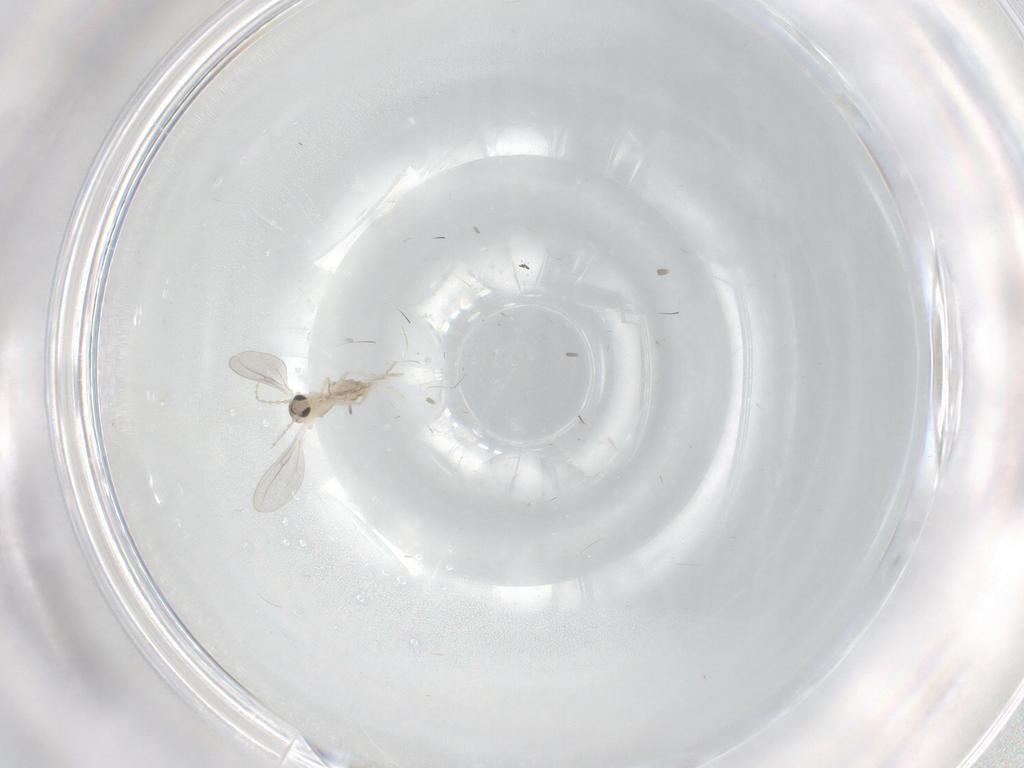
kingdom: Animalia
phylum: Arthropoda
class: Insecta
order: Diptera
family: Cecidomyiidae
